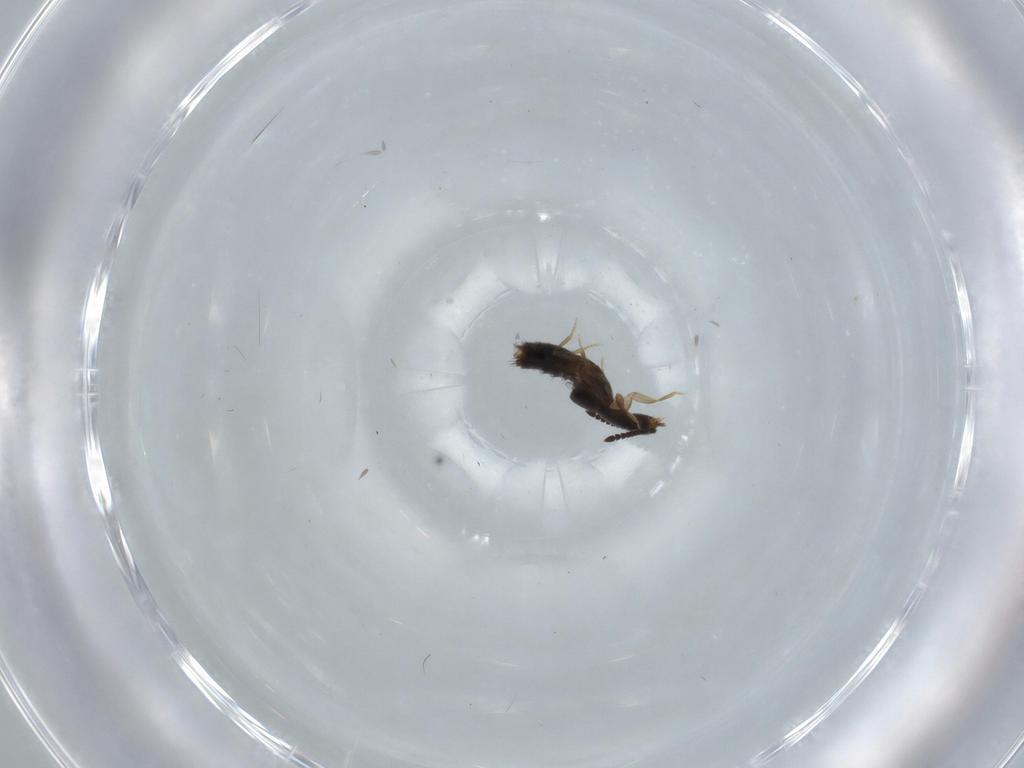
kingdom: Animalia
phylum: Arthropoda
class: Insecta
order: Coleoptera
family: Staphylinidae
